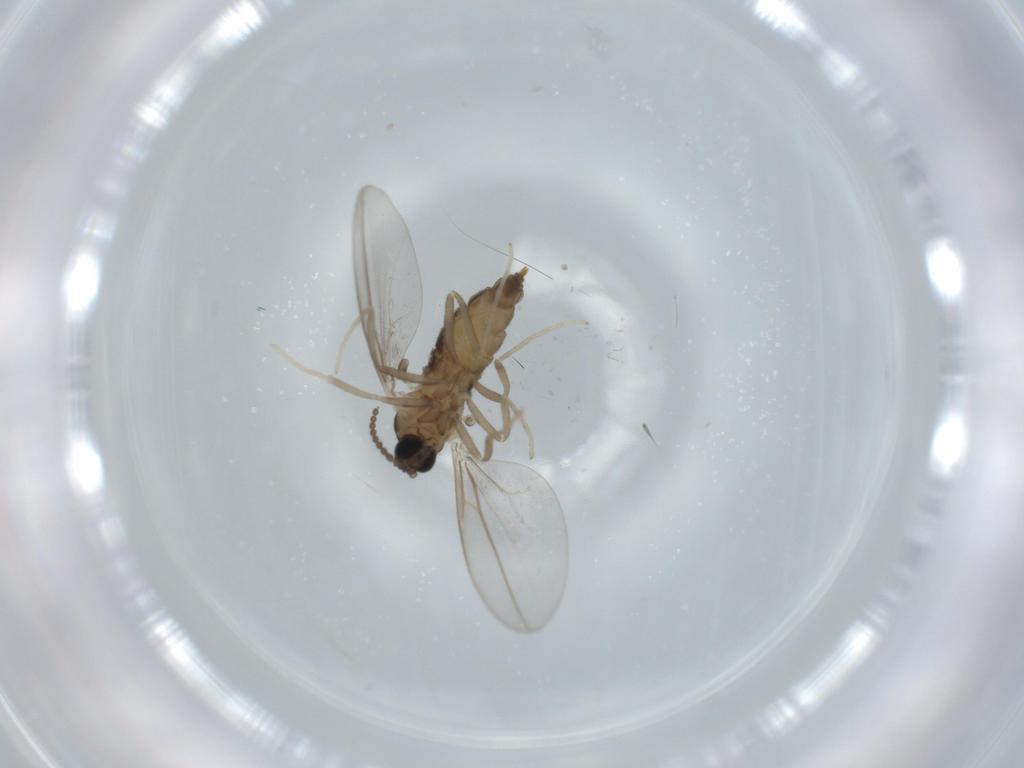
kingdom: Animalia
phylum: Arthropoda
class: Insecta
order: Diptera
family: Cecidomyiidae
